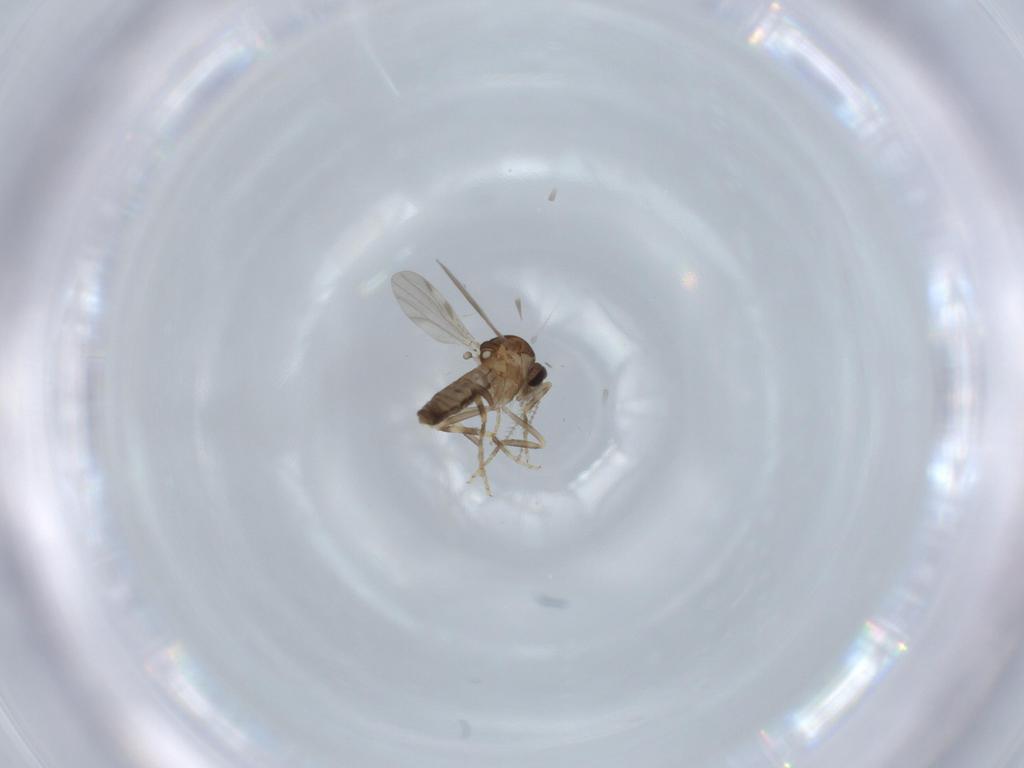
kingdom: Animalia
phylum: Arthropoda
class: Insecta
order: Diptera
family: Ceratopogonidae
